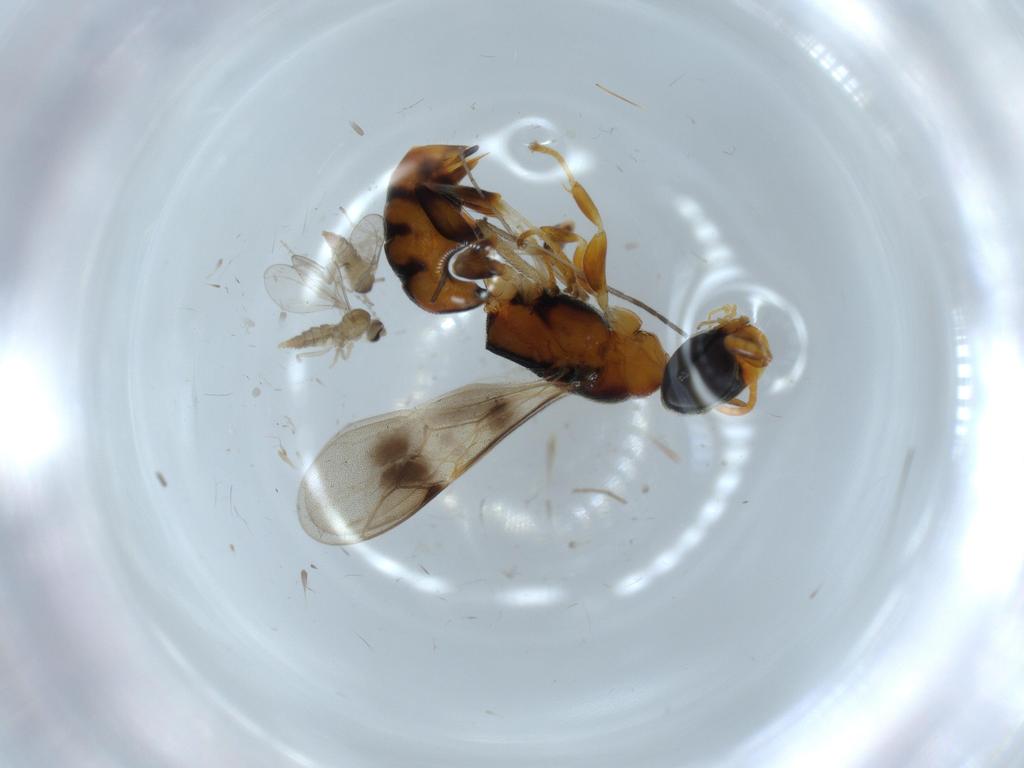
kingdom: Animalia
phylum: Arthropoda
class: Insecta
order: Diptera
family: Cecidomyiidae
